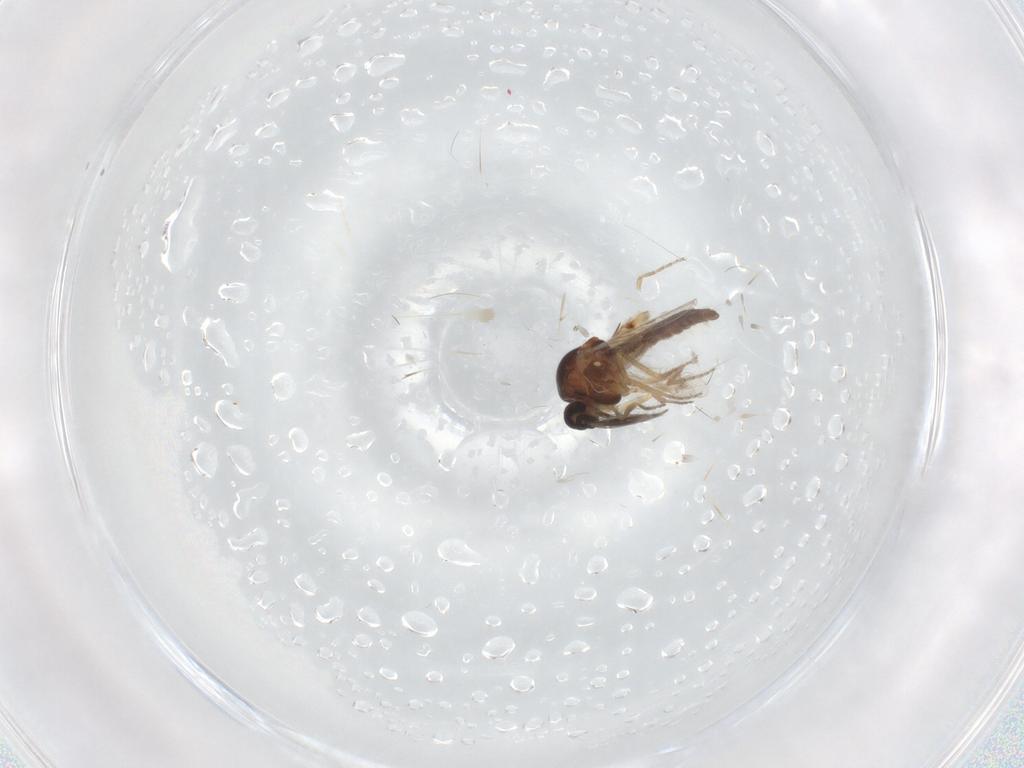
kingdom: Animalia
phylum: Arthropoda
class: Insecta
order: Diptera
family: Ceratopogonidae
